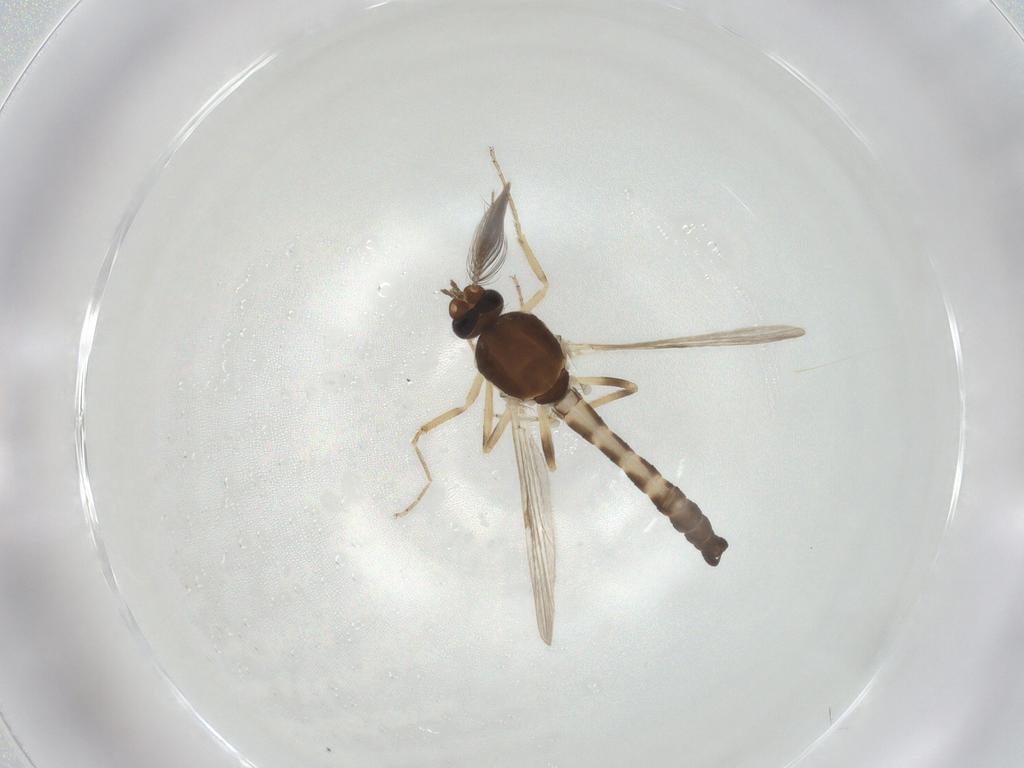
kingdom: Animalia
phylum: Arthropoda
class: Insecta
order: Diptera
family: Ceratopogonidae
